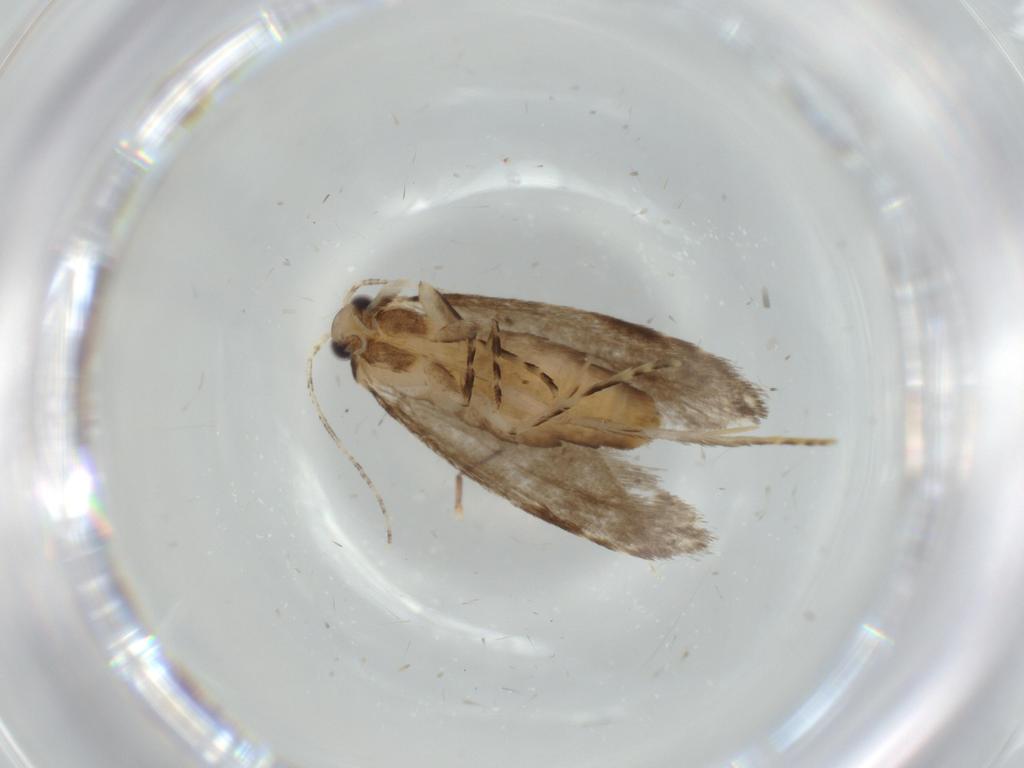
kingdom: Animalia
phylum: Arthropoda
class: Insecta
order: Lepidoptera
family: Tineidae
